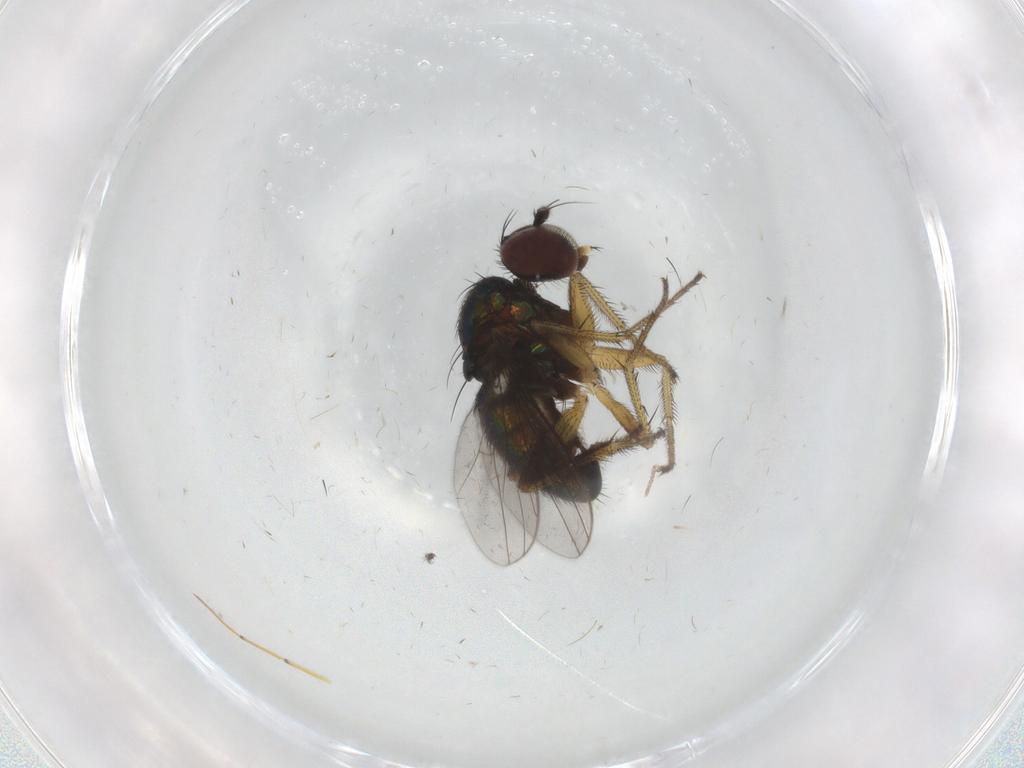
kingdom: Animalia
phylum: Arthropoda
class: Insecta
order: Diptera
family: Dolichopodidae
